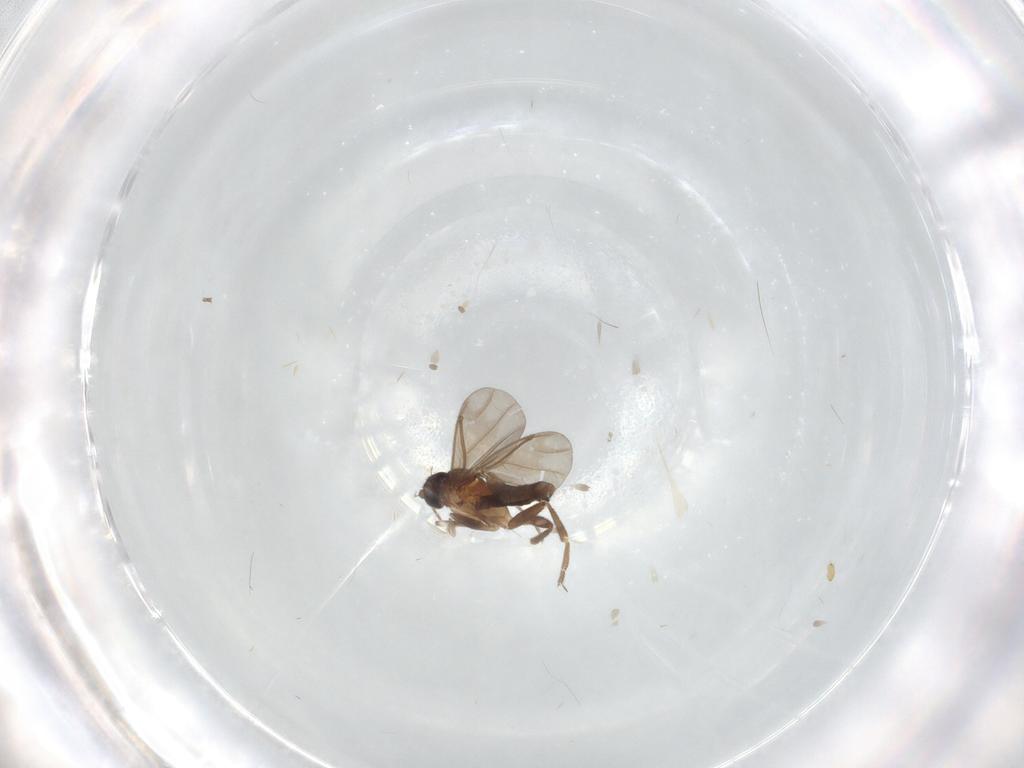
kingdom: Animalia
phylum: Arthropoda
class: Insecta
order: Diptera
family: Phoridae
